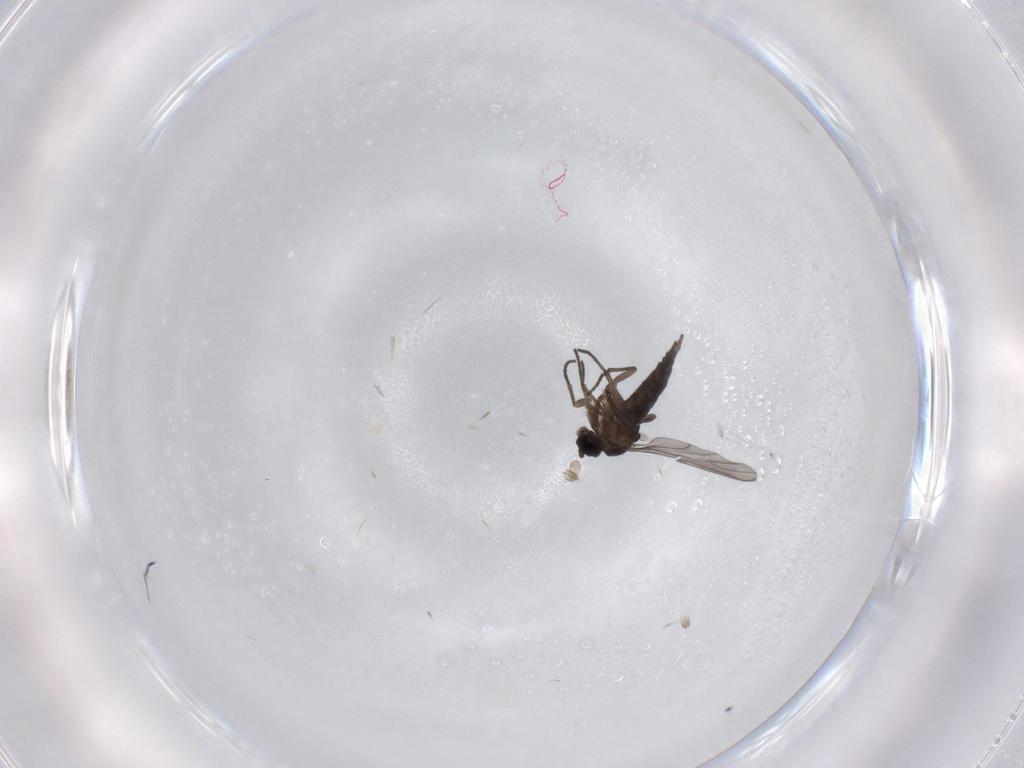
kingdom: Animalia
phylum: Arthropoda
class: Insecta
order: Diptera
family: Sciaridae
